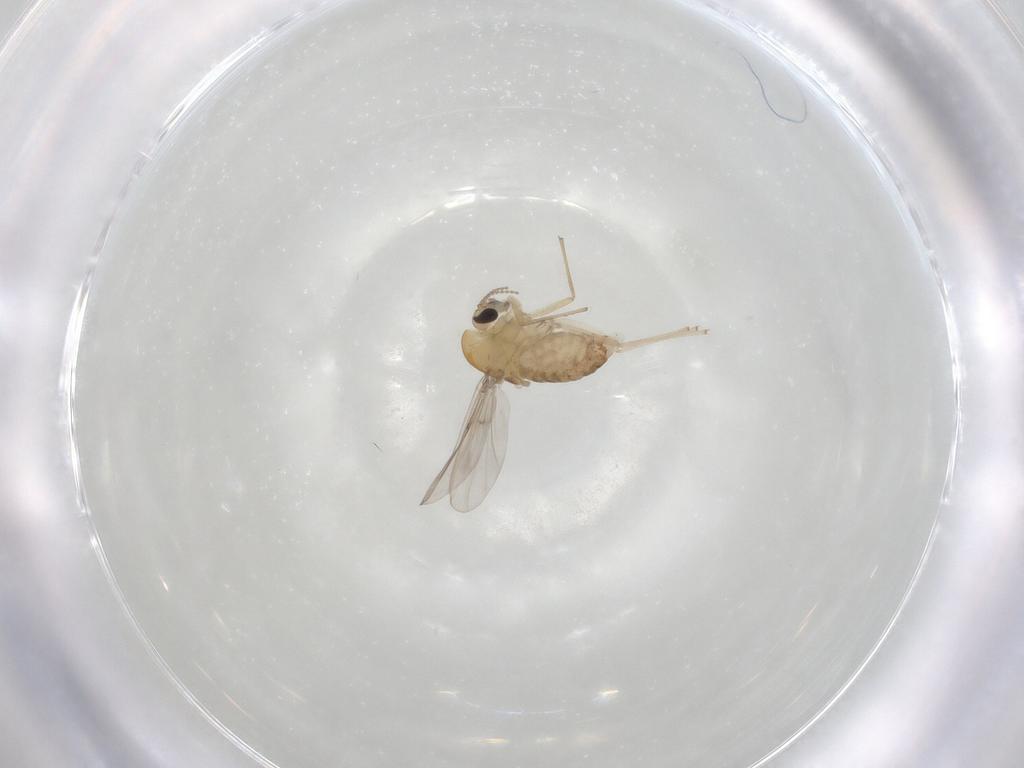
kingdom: Animalia
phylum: Arthropoda
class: Insecta
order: Diptera
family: Chironomidae
